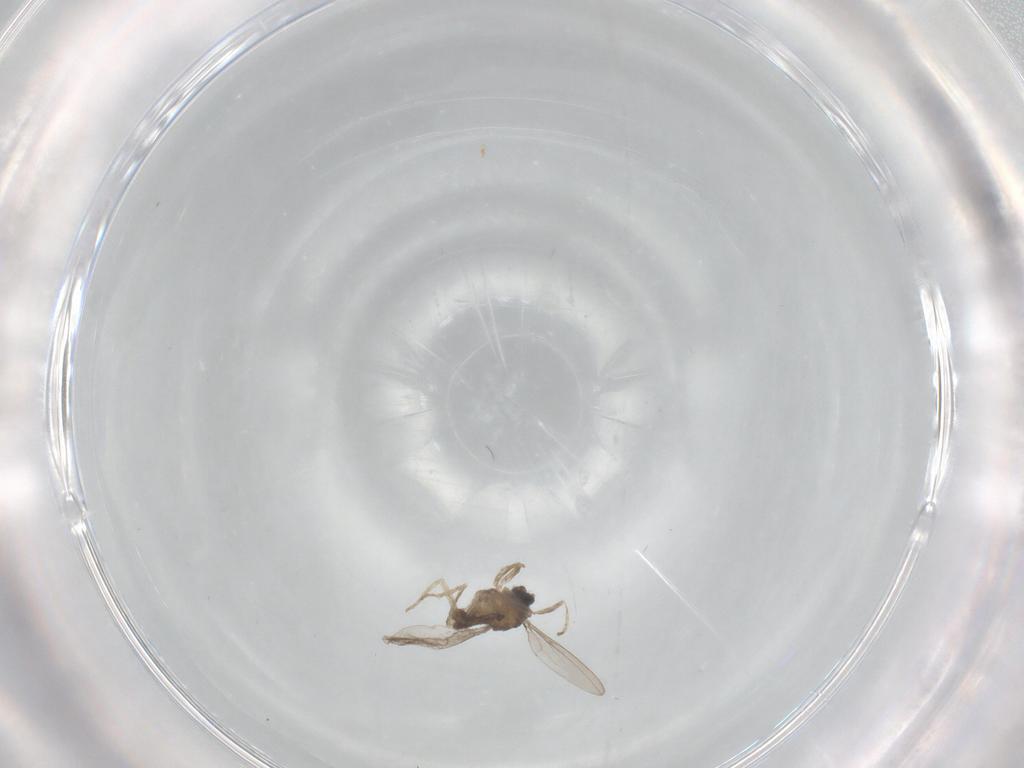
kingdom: Animalia
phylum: Arthropoda
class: Insecta
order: Diptera
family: Cecidomyiidae
